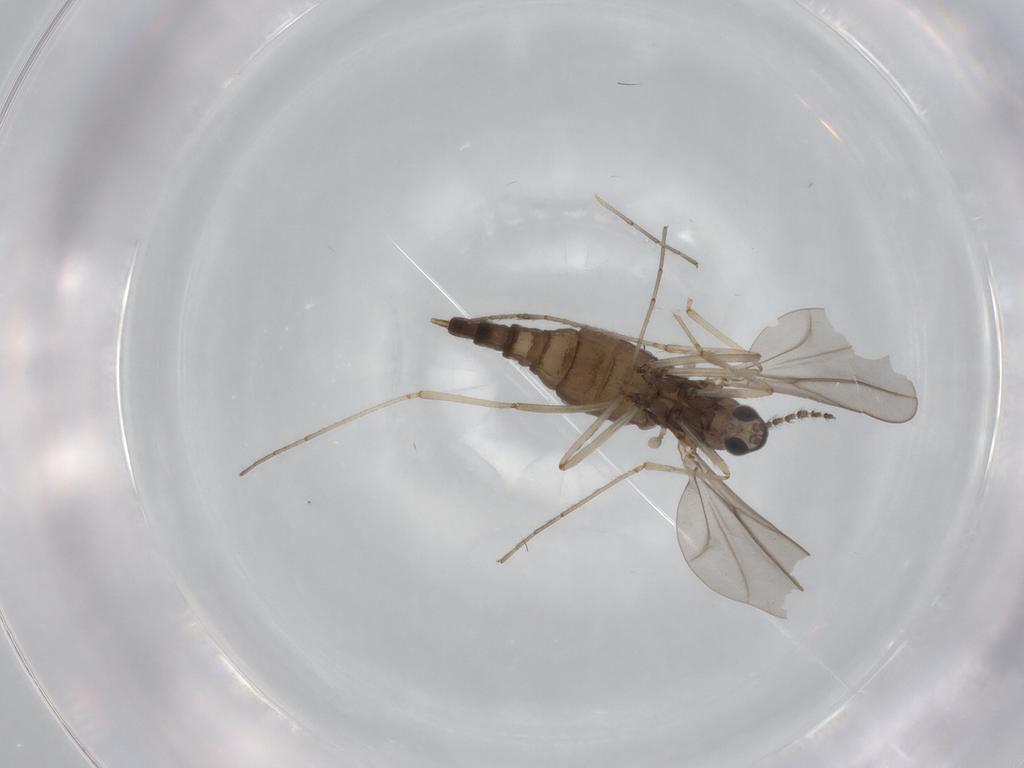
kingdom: Animalia
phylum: Arthropoda
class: Insecta
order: Diptera
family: Cecidomyiidae
